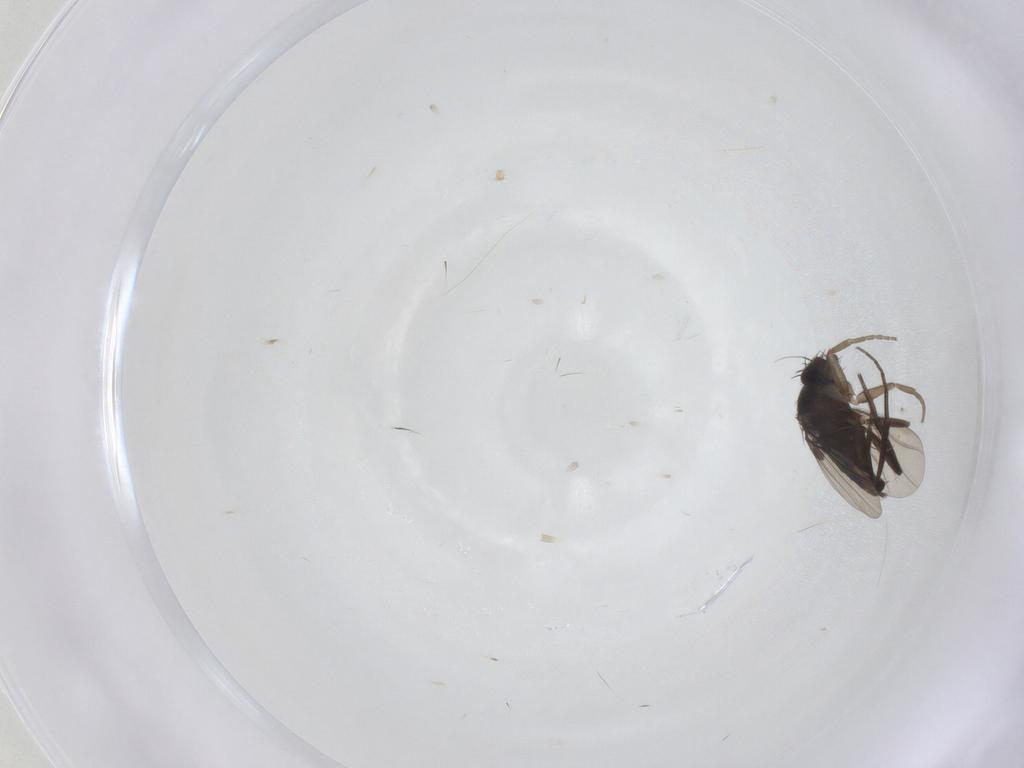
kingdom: Animalia
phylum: Arthropoda
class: Insecta
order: Diptera
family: Phoridae
